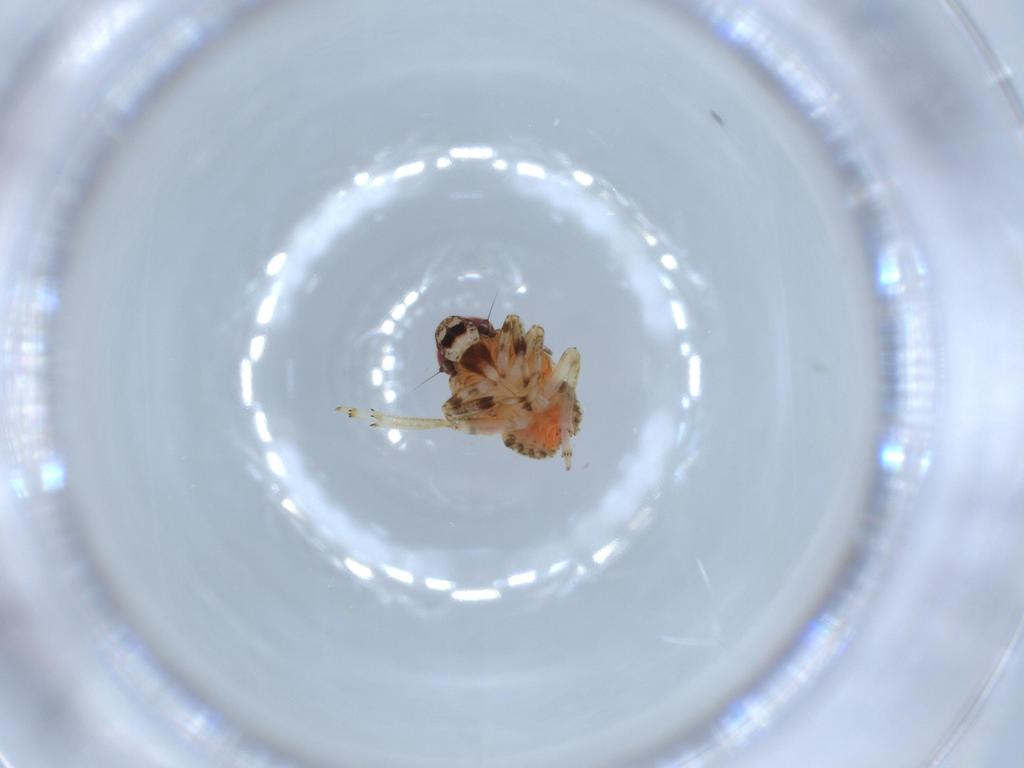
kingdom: Animalia
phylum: Arthropoda
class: Insecta
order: Hemiptera
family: Issidae
